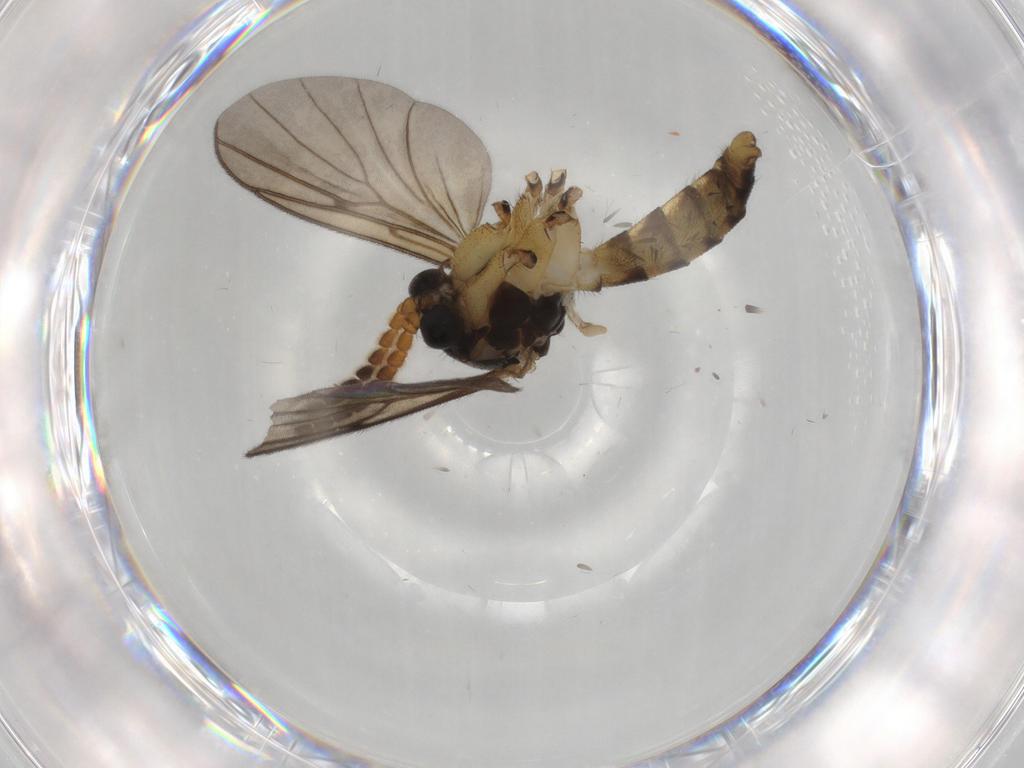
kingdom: Animalia
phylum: Arthropoda
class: Insecta
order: Diptera
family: Mycetophilidae
